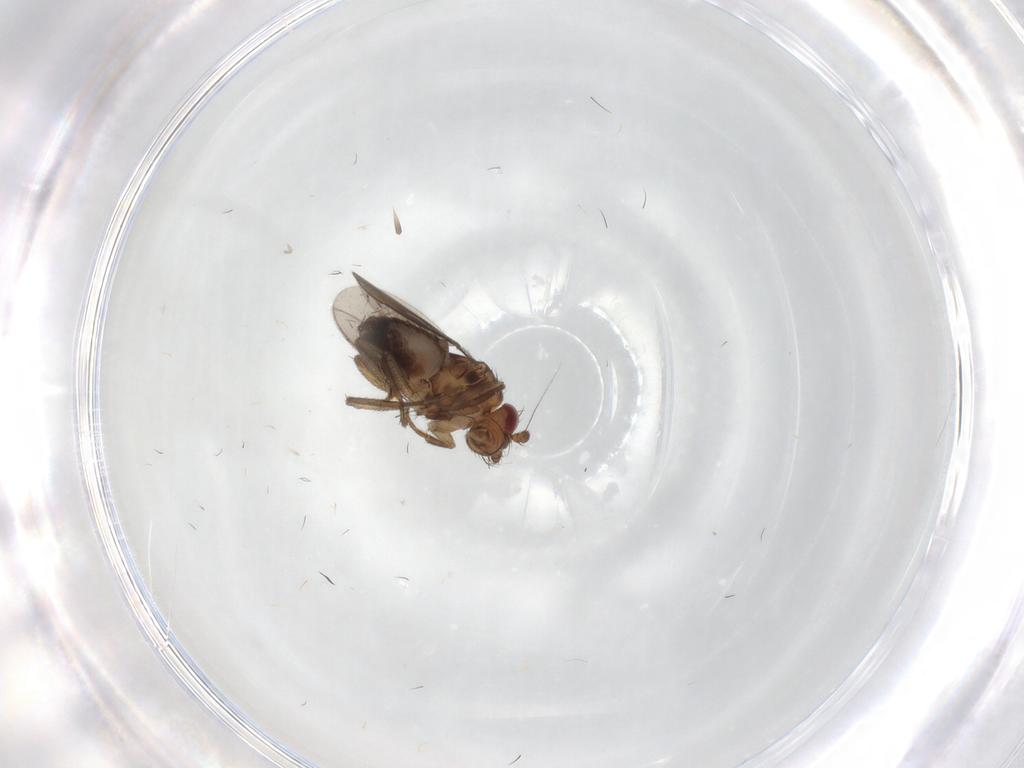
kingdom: Animalia
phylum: Arthropoda
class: Insecta
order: Diptera
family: Sphaeroceridae
